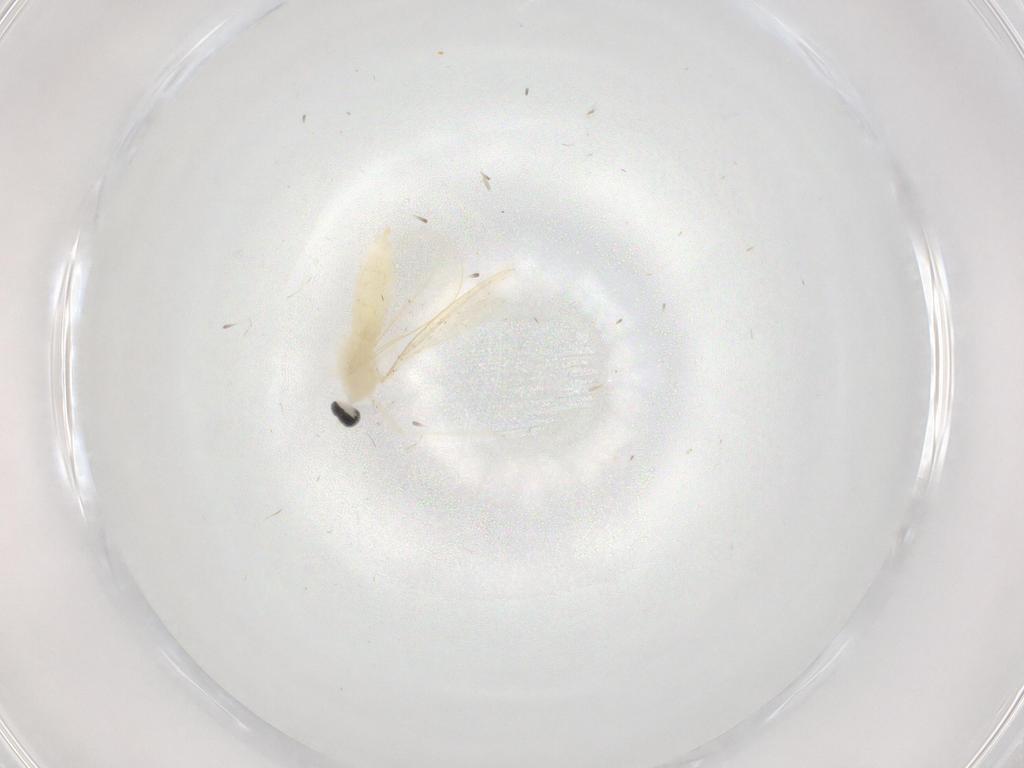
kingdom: Animalia
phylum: Arthropoda
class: Insecta
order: Diptera
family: Cecidomyiidae
